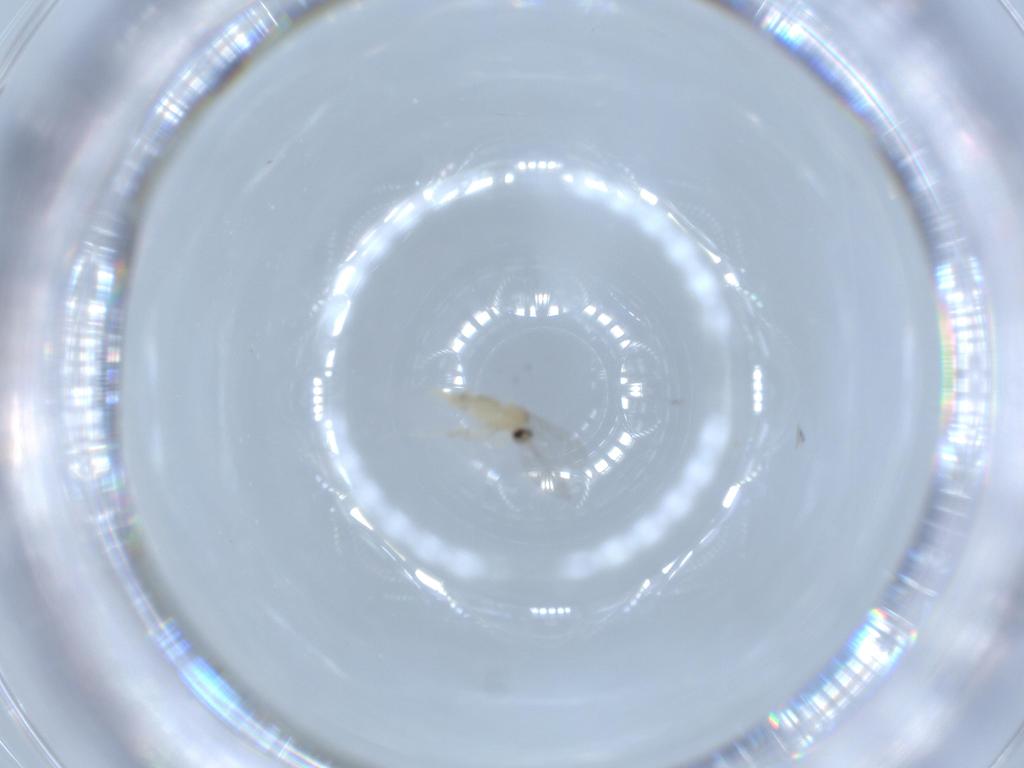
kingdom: Animalia
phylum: Arthropoda
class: Insecta
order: Diptera
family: Cecidomyiidae
